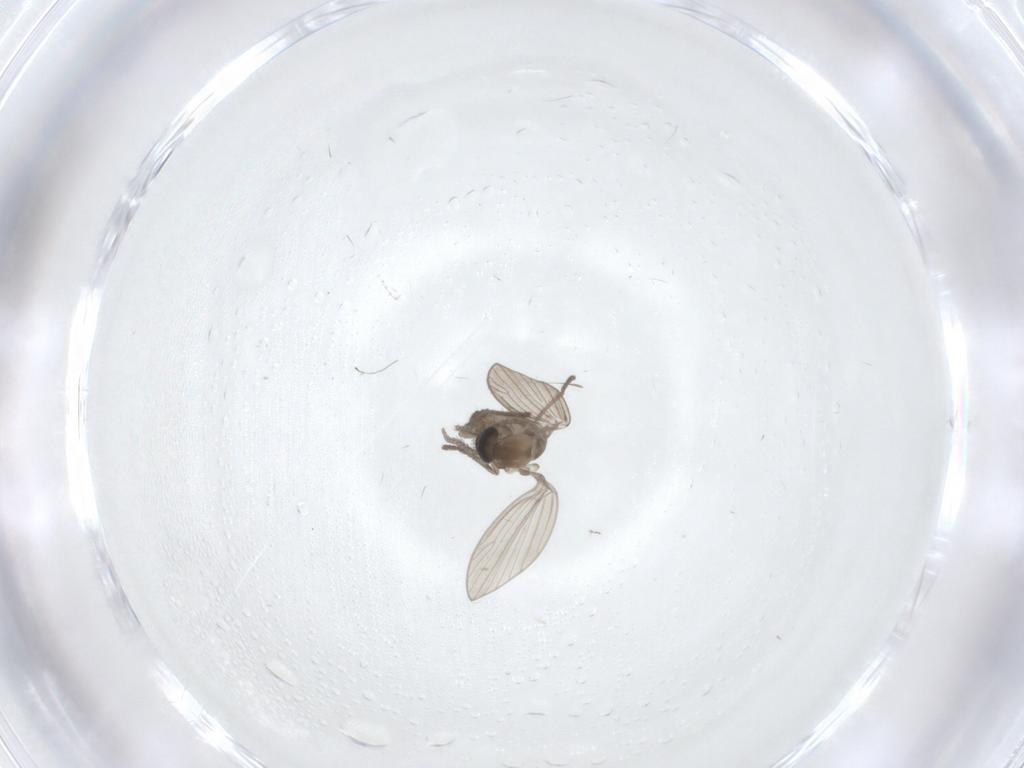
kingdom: Animalia
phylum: Arthropoda
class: Insecta
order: Diptera
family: Psychodidae
